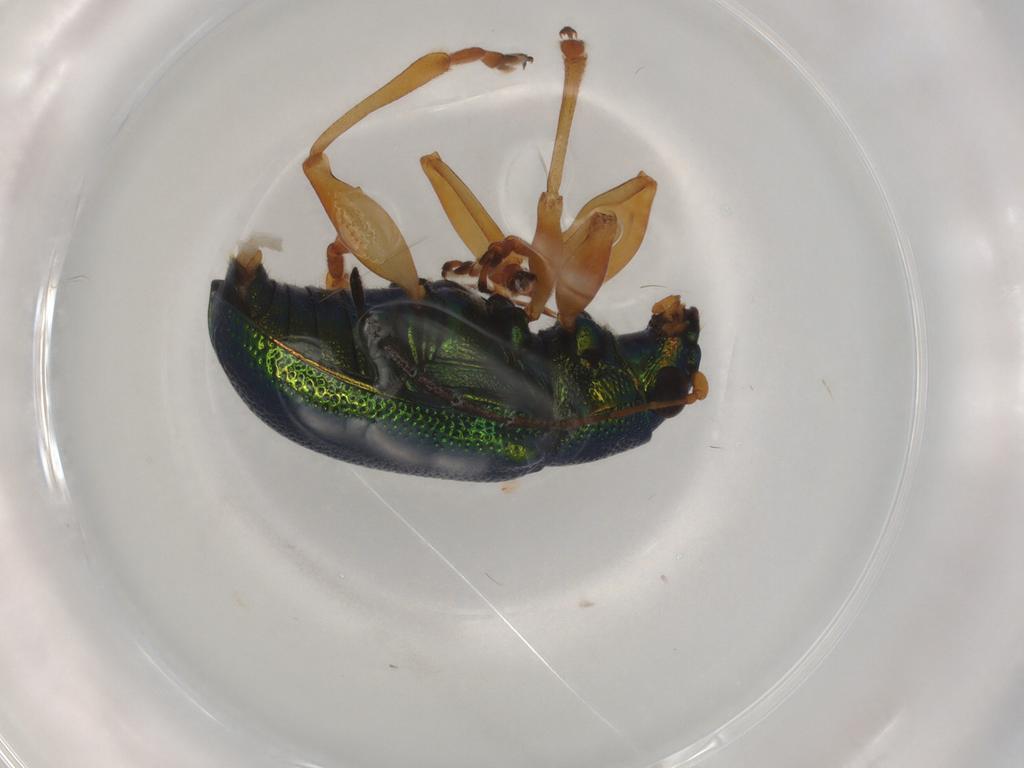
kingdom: Animalia
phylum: Arthropoda
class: Insecta
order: Coleoptera
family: Chrysomelidae
